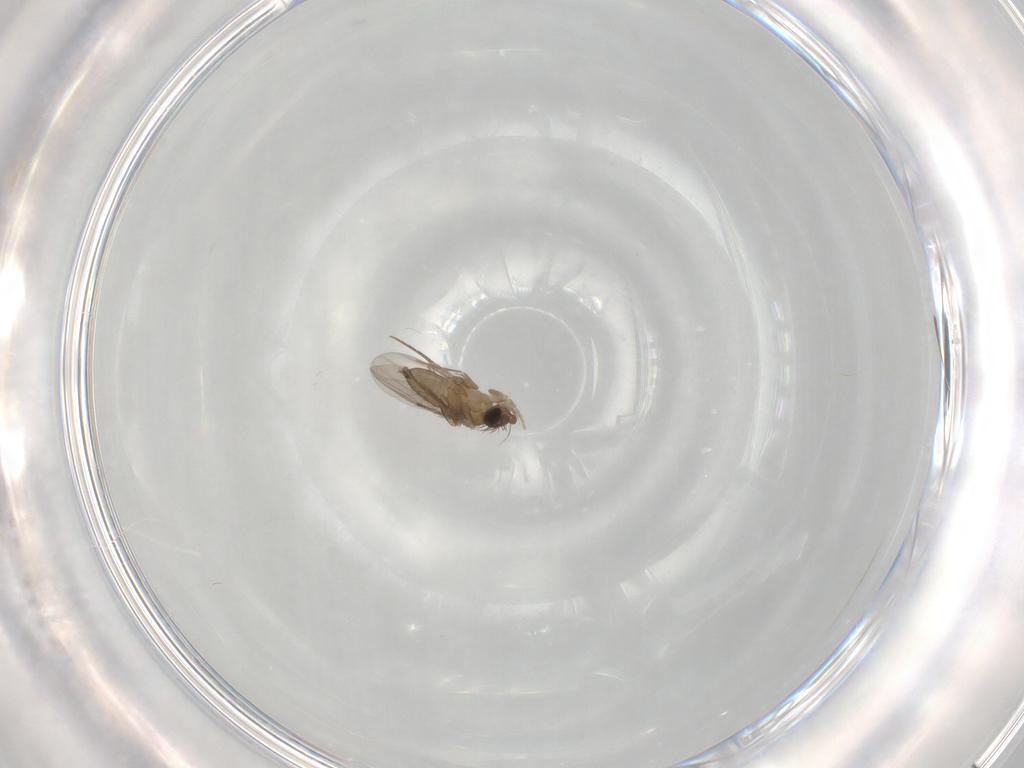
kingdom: Animalia
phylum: Arthropoda
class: Insecta
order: Diptera
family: Phoridae
